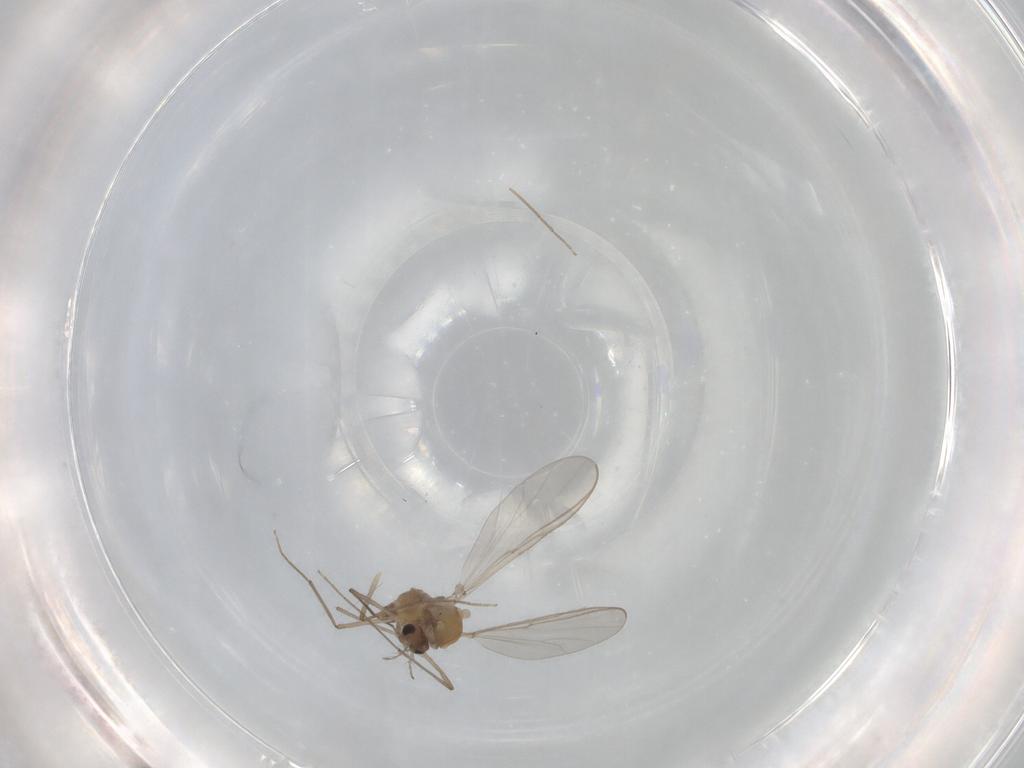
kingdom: Animalia
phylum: Arthropoda
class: Insecta
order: Diptera
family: Chironomidae
